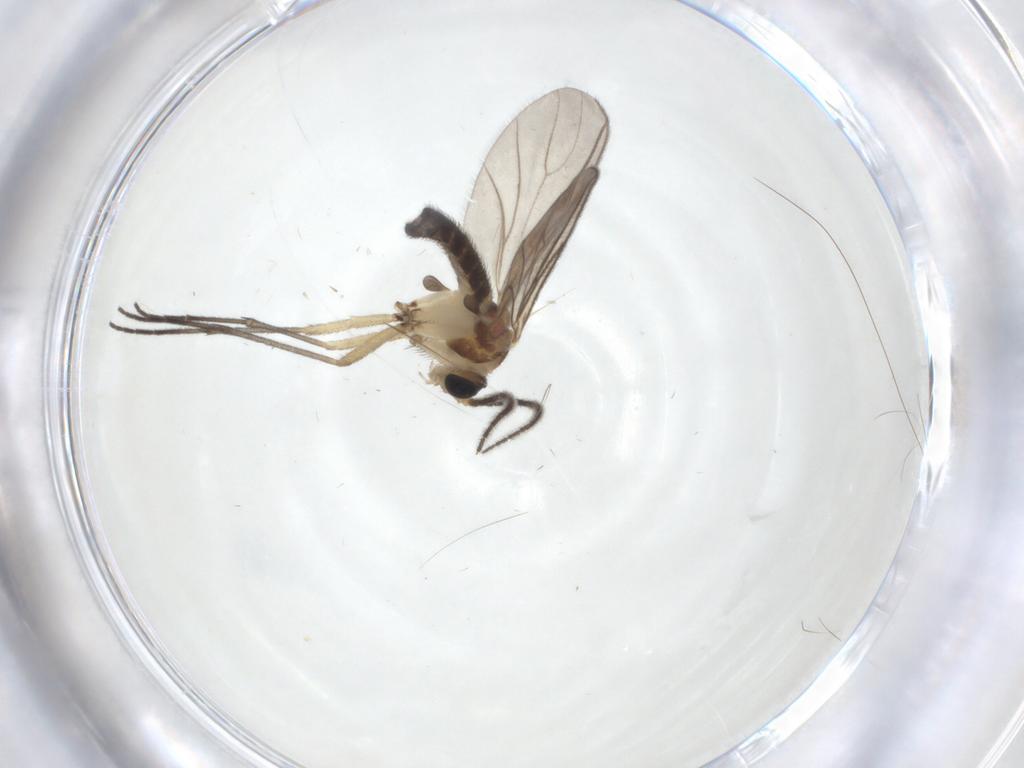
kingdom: Animalia
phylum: Arthropoda
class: Insecta
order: Diptera
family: Sciaridae
